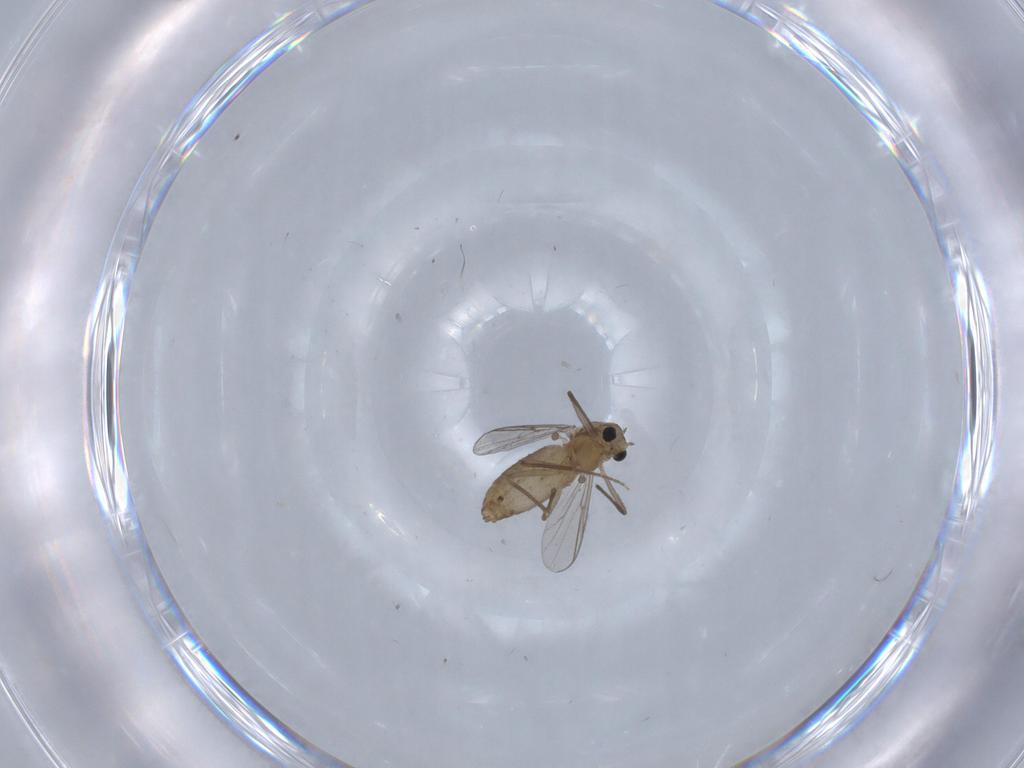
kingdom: Animalia
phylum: Arthropoda
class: Insecta
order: Diptera
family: Chironomidae
